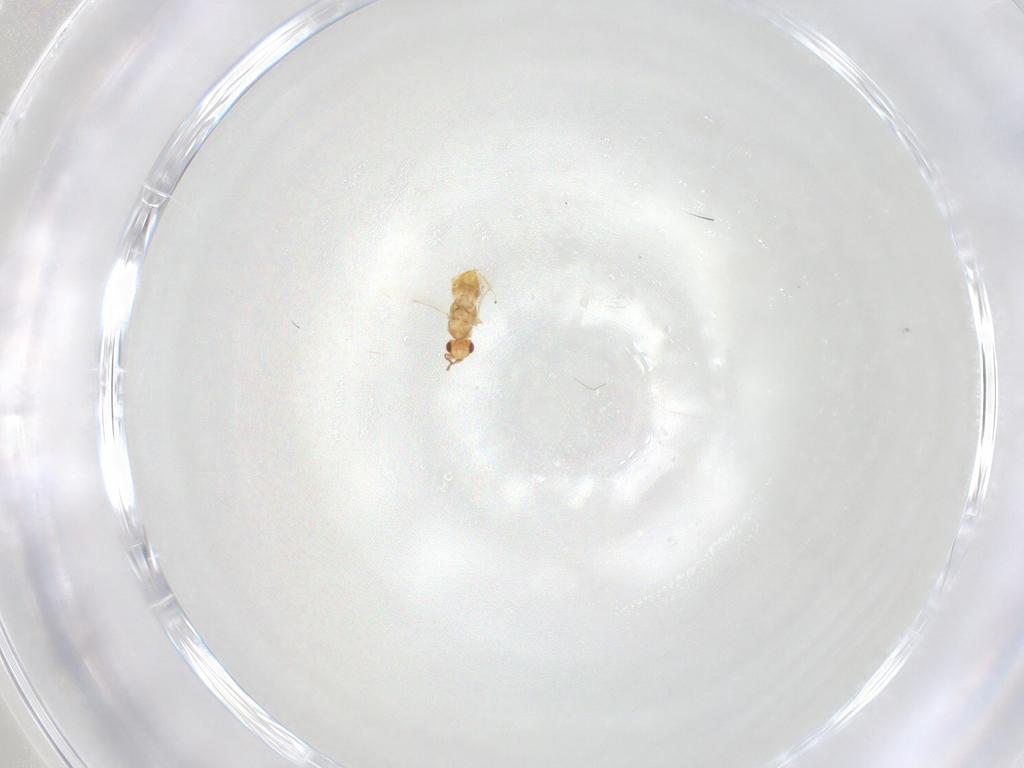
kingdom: Animalia
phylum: Arthropoda
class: Insecta
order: Hymenoptera
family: Encyrtidae
